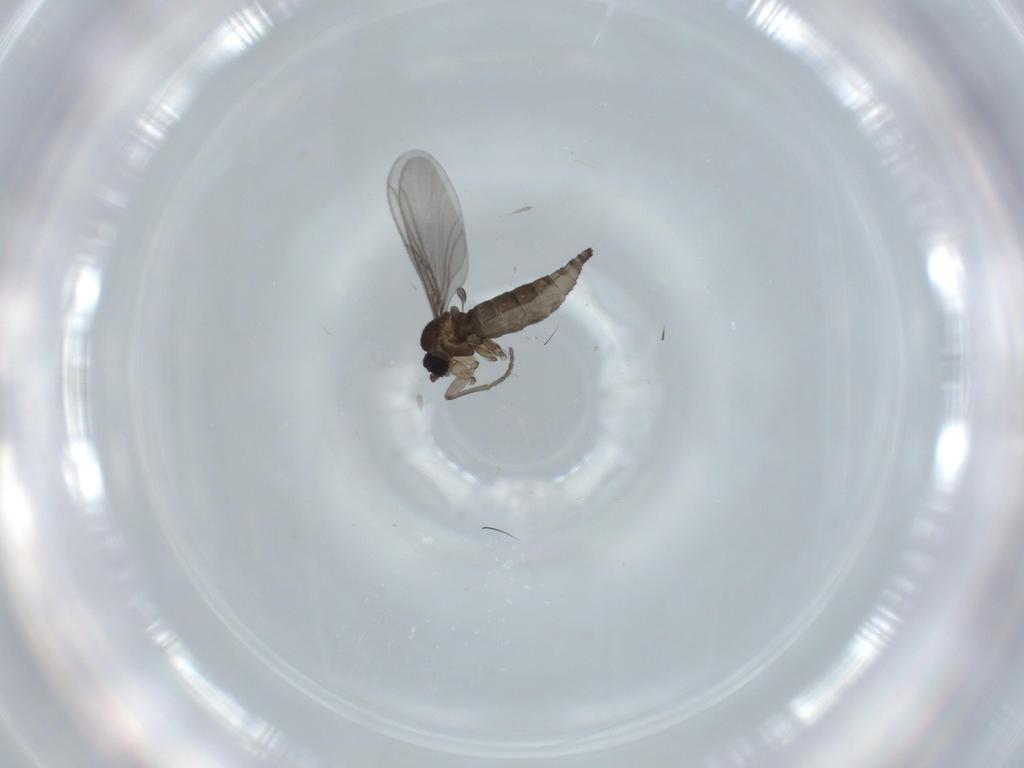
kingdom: Animalia
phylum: Arthropoda
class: Insecta
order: Diptera
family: Phoridae
